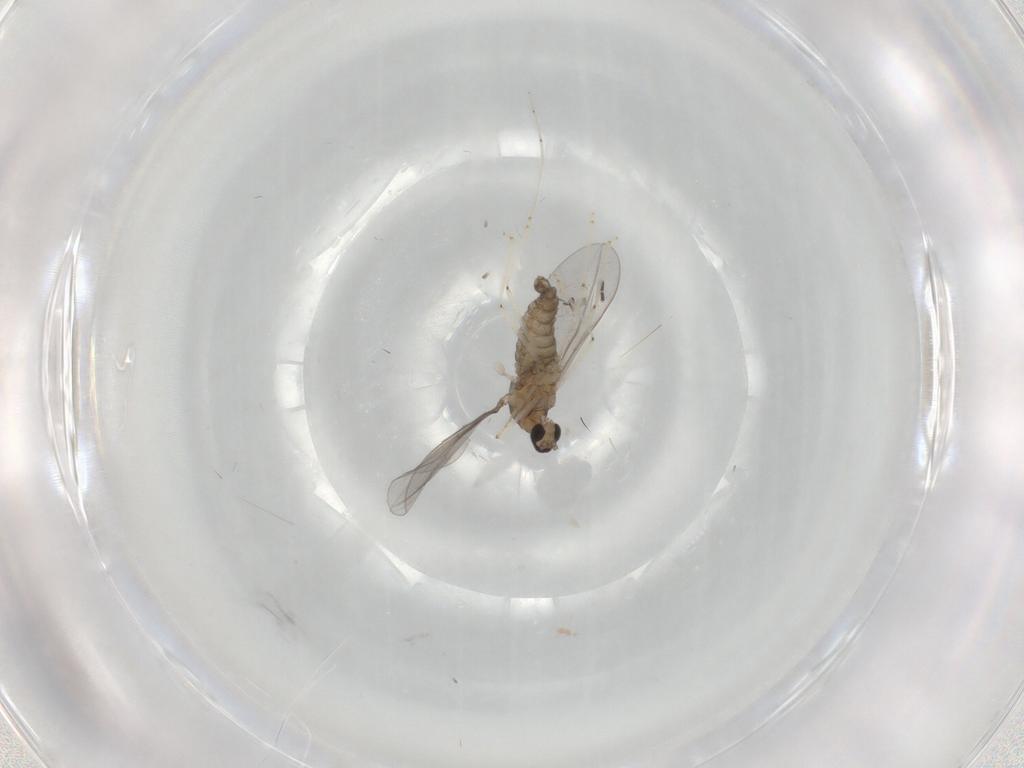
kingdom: Animalia
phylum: Arthropoda
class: Insecta
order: Diptera
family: Cecidomyiidae
